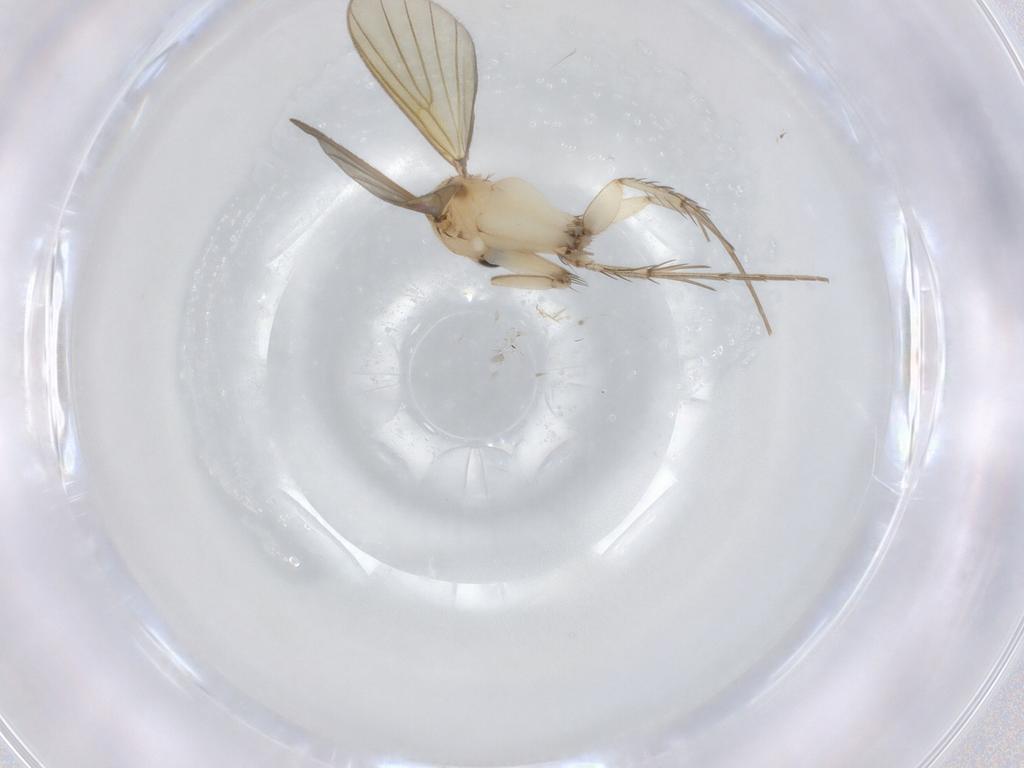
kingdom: Animalia
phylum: Arthropoda
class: Insecta
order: Diptera
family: Mycetophilidae
